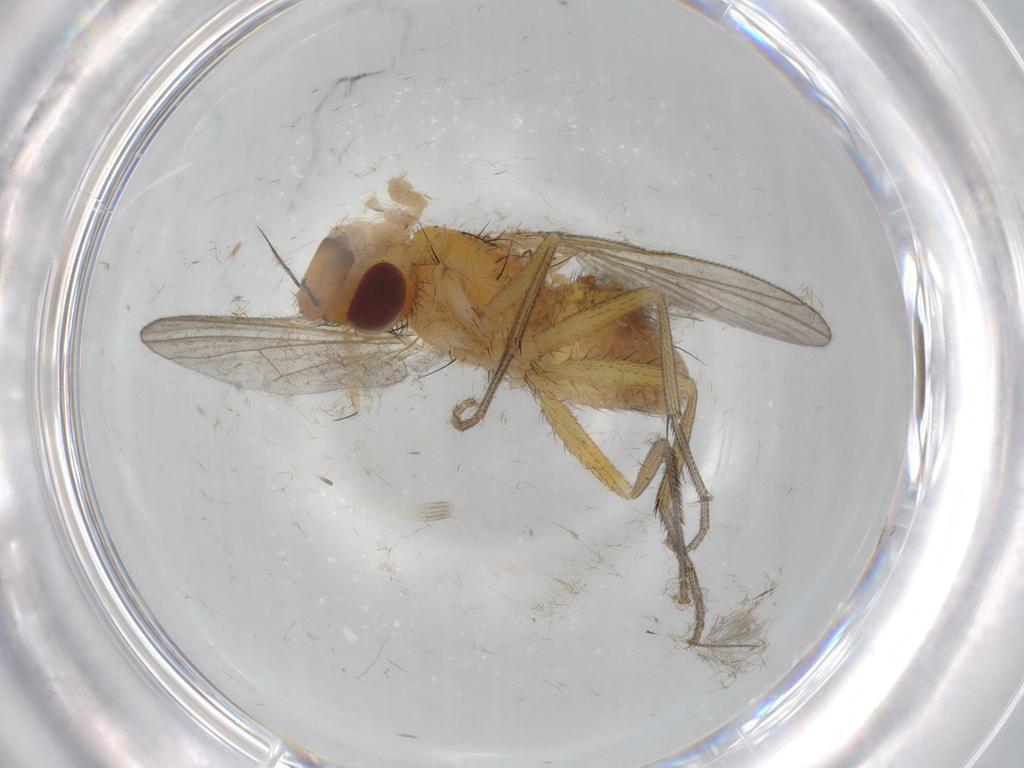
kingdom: Animalia
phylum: Arthropoda
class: Insecta
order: Diptera
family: Muscidae
